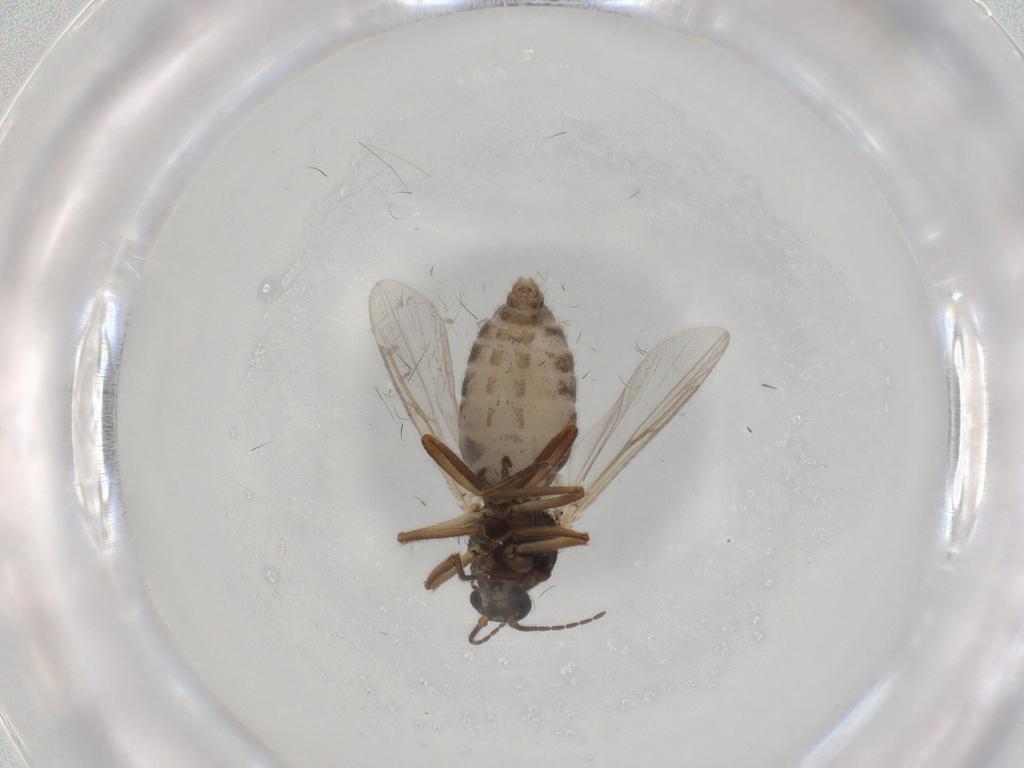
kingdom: Animalia
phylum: Arthropoda
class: Insecta
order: Diptera
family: Ceratopogonidae
